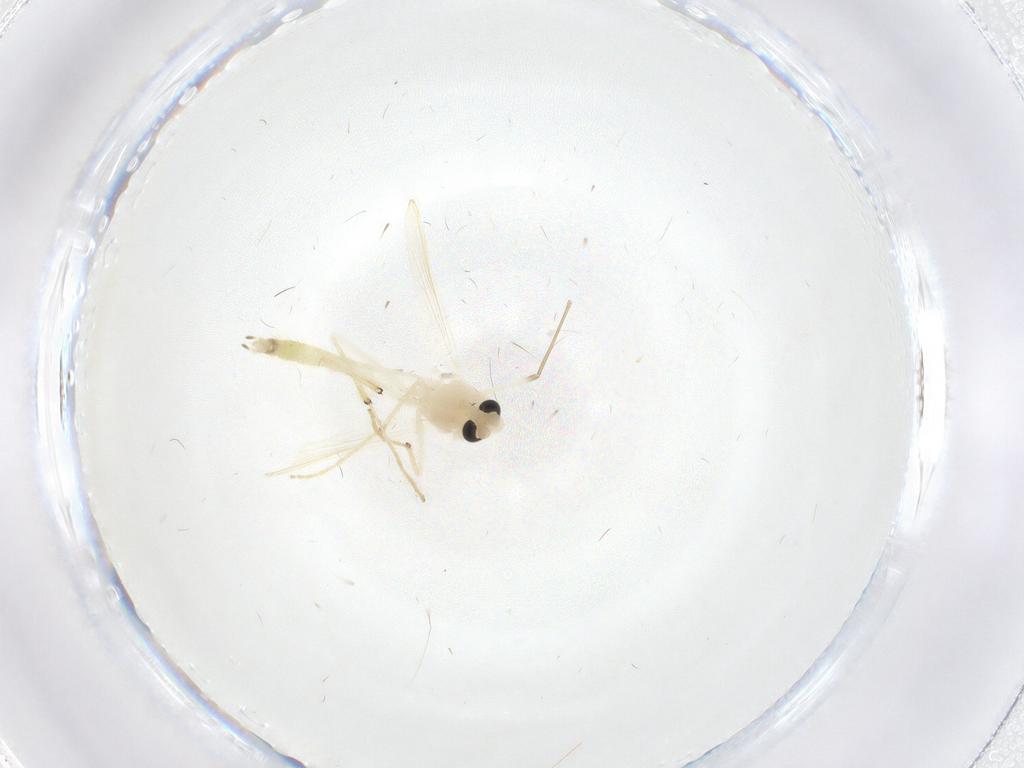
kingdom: Animalia
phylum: Arthropoda
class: Insecta
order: Diptera
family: Chironomidae
